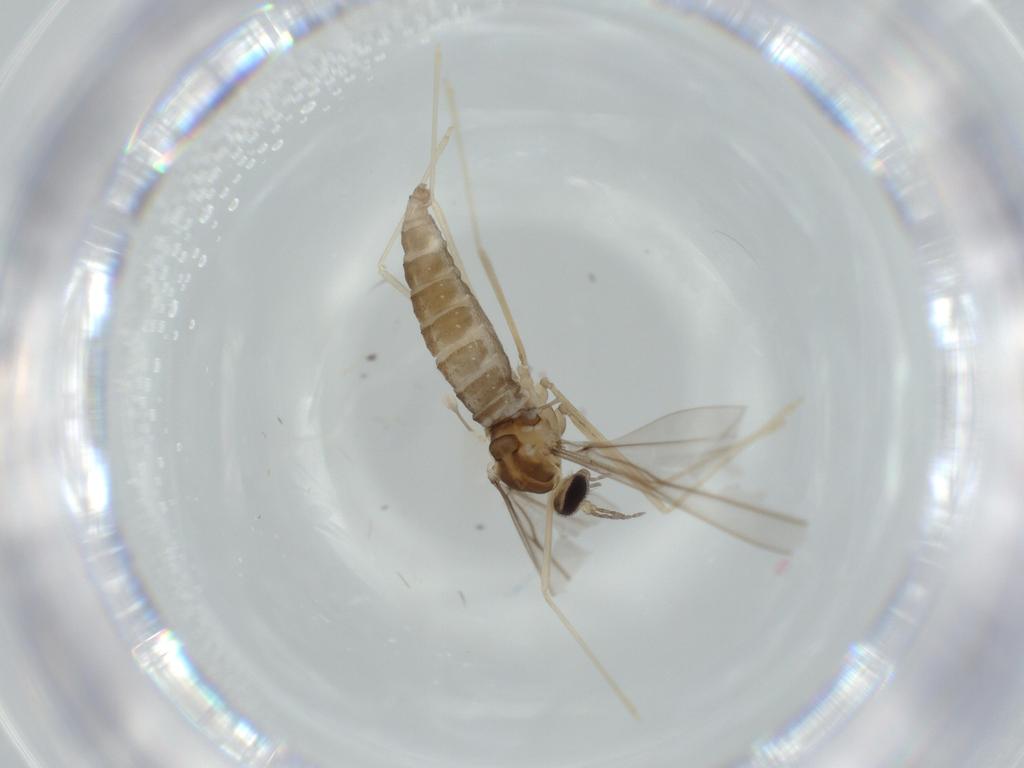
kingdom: Animalia
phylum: Arthropoda
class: Insecta
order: Diptera
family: Cecidomyiidae
